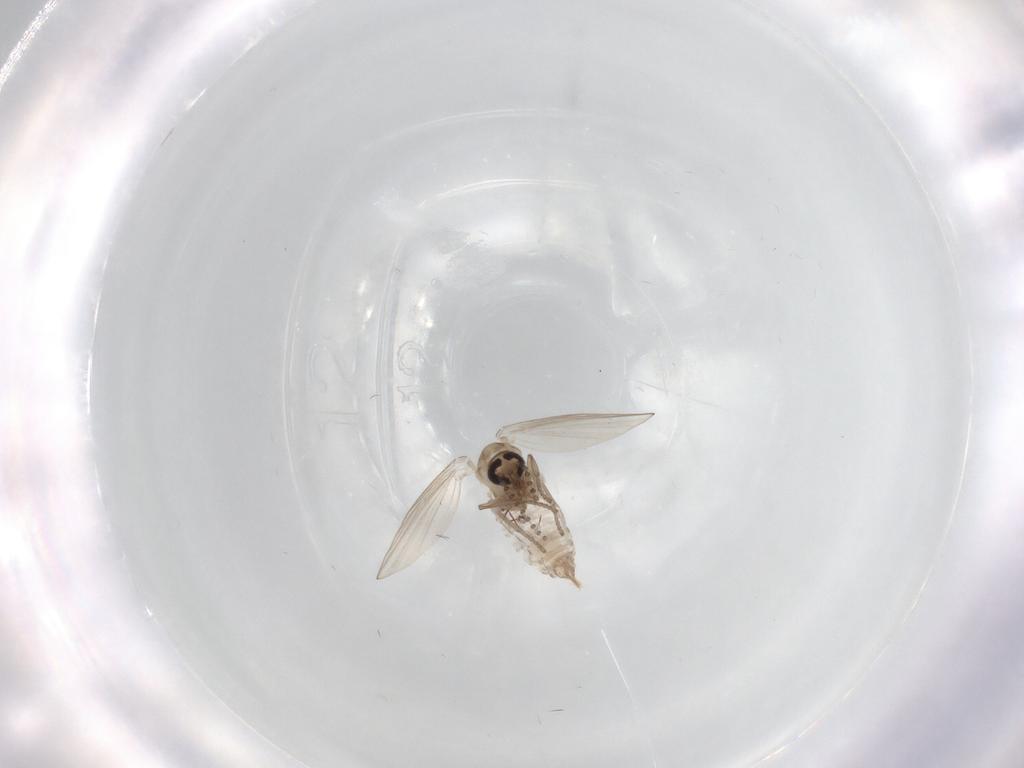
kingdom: Animalia
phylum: Arthropoda
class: Insecta
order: Diptera
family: Psychodidae
